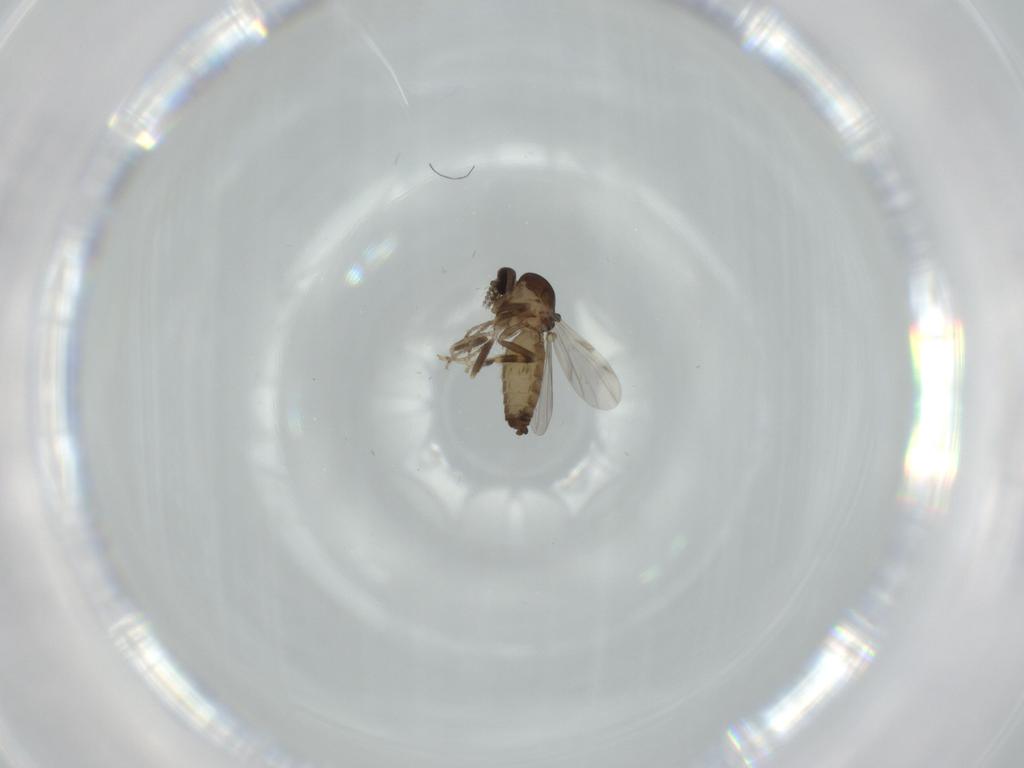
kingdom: Animalia
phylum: Arthropoda
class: Insecta
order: Diptera
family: Ceratopogonidae
